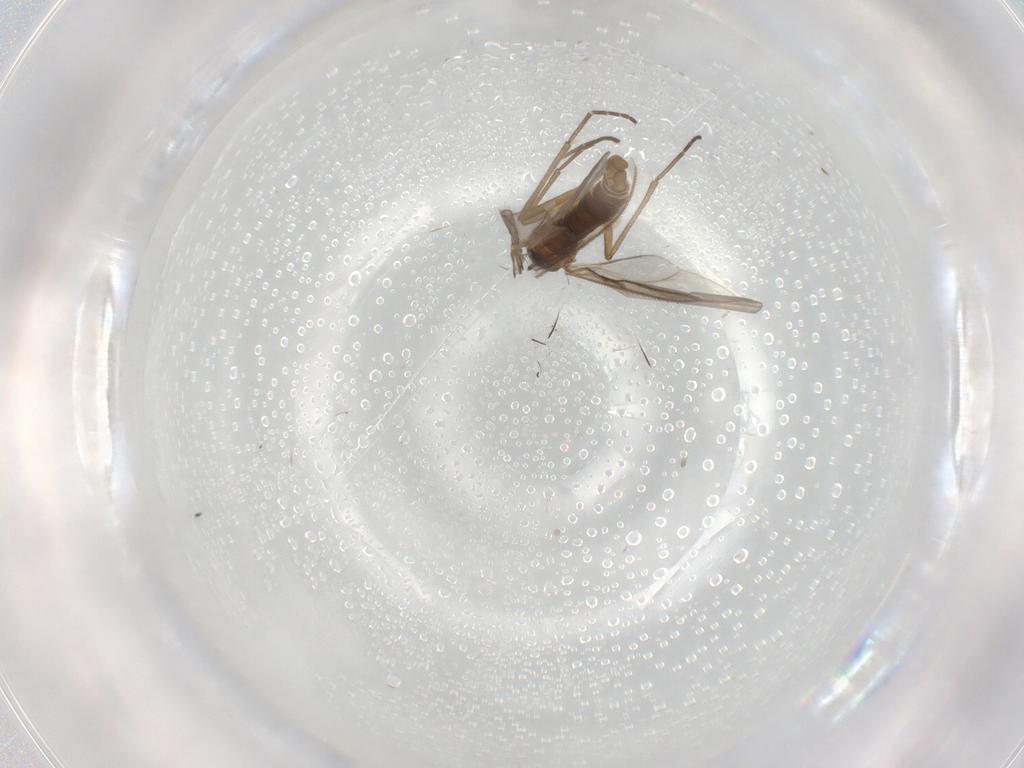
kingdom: Animalia
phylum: Arthropoda
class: Insecta
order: Diptera
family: Sciaridae
